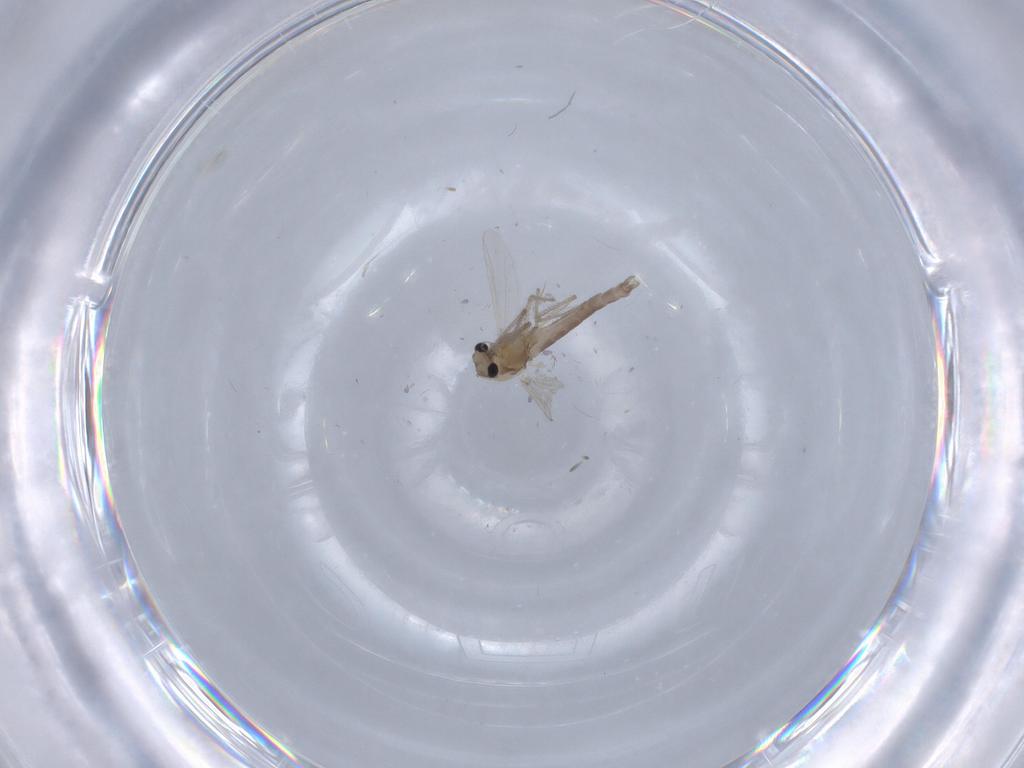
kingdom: Animalia
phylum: Arthropoda
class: Insecta
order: Diptera
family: Chironomidae
